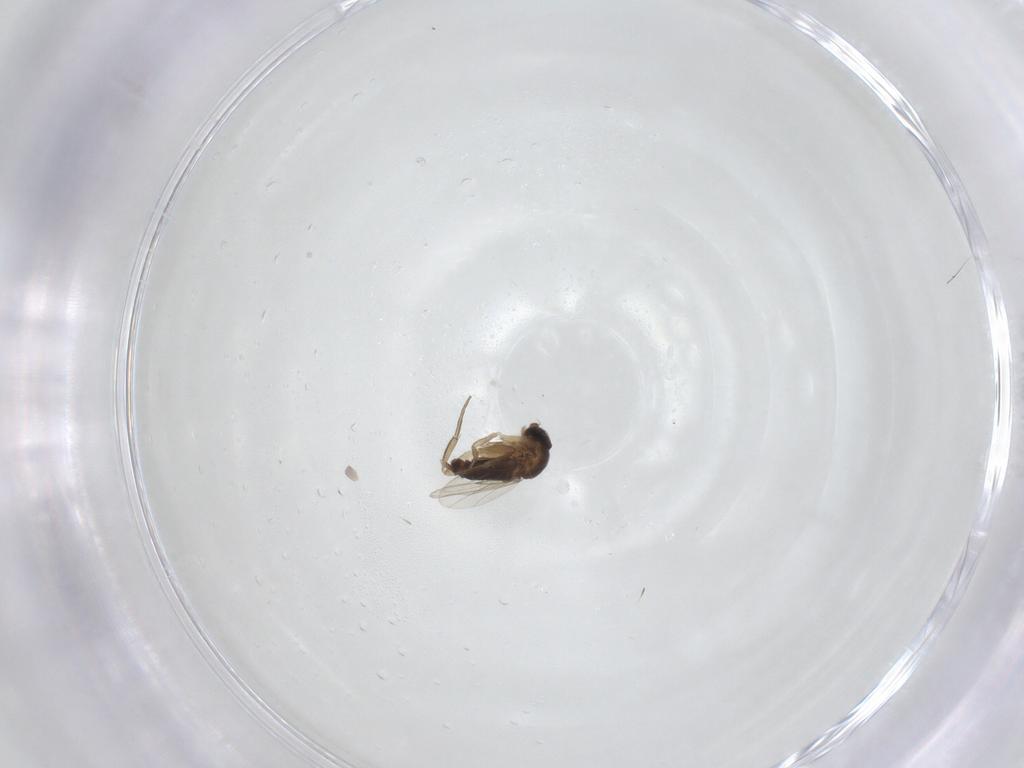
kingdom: Animalia
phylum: Arthropoda
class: Insecta
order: Diptera
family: Phoridae
